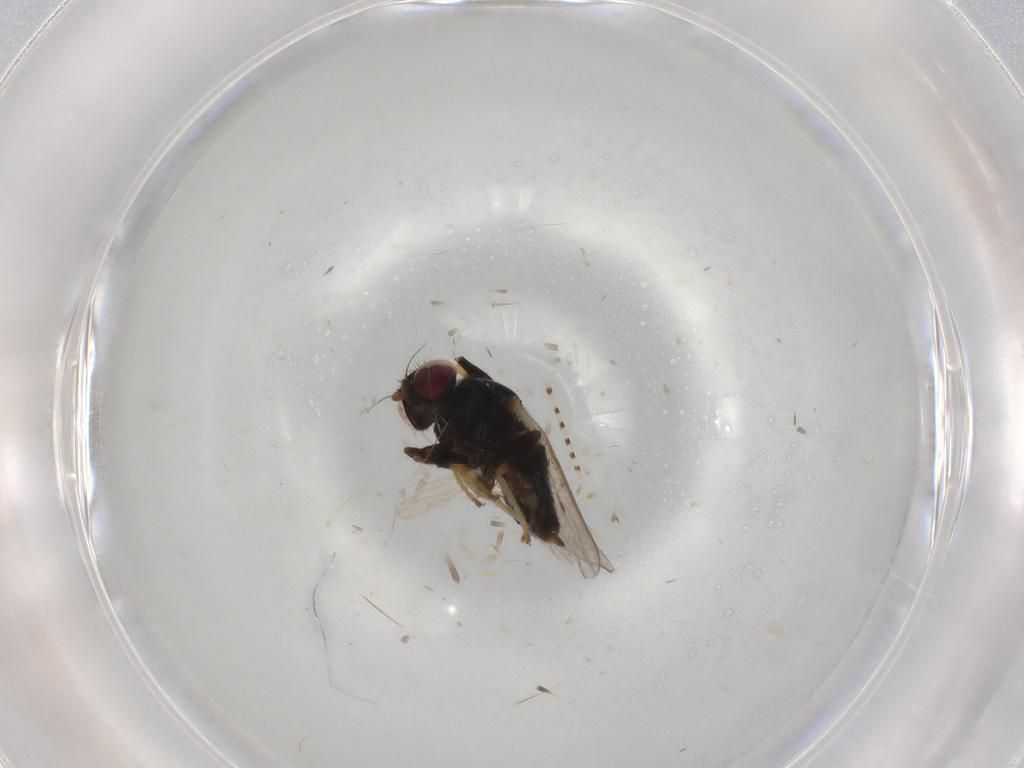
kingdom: Animalia
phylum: Arthropoda
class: Insecta
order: Diptera
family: Chloropidae
